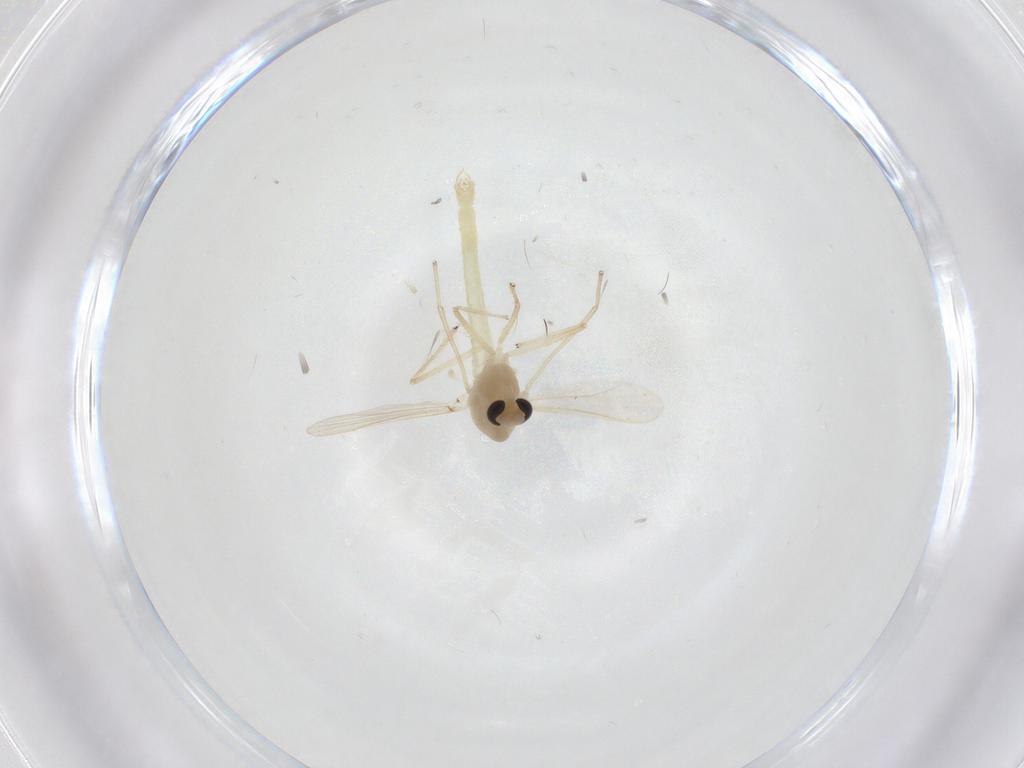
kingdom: Animalia
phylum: Arthropoda
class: Insecta
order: Diptera
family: Chironomidae
